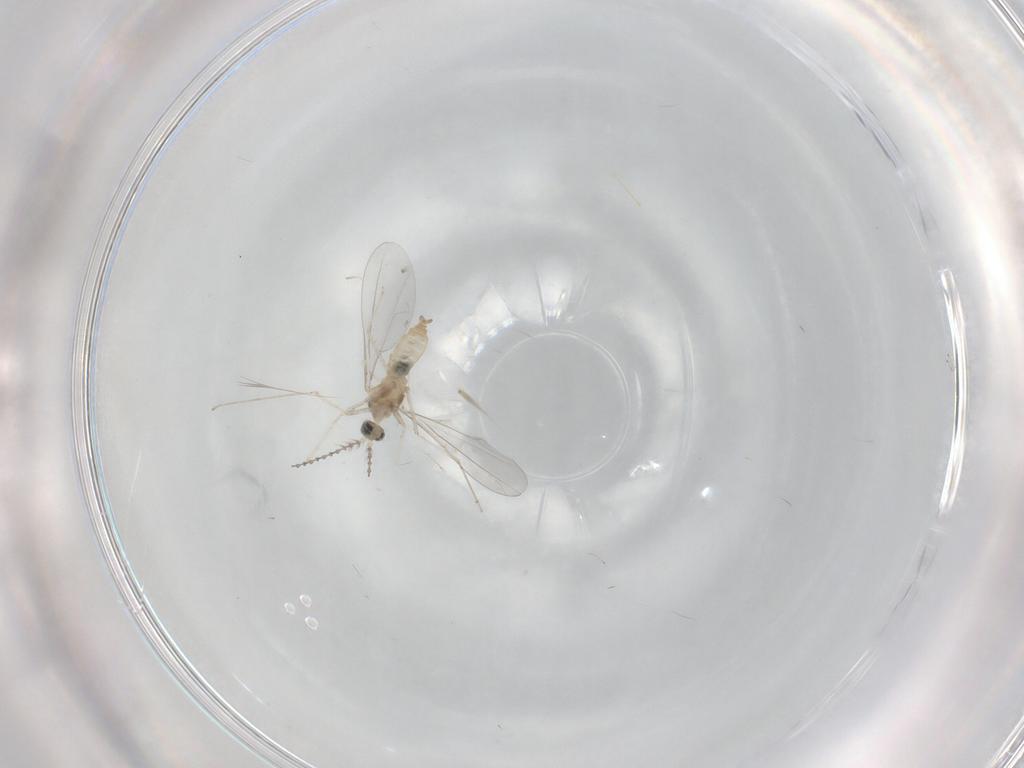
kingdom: Animalia
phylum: Arthropoda
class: Insecta
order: Diptera
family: Cecidomyiidae
